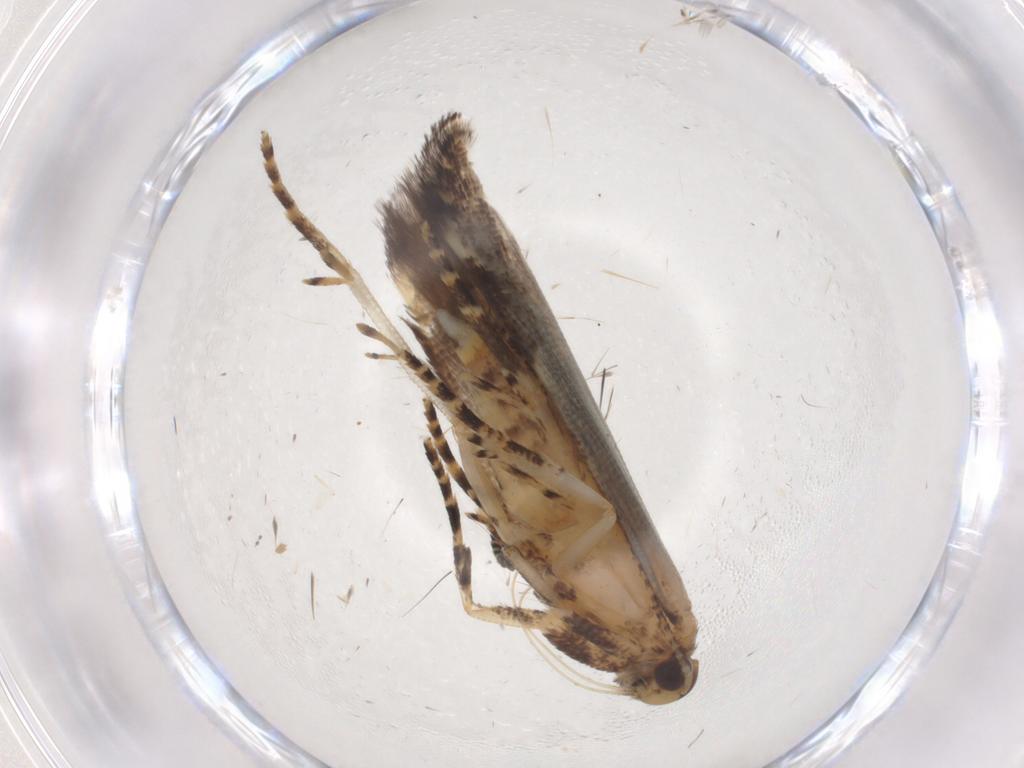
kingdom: Animalia
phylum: Arthropoda
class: Insecta
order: Lepidoptera
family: Gelechiidae
